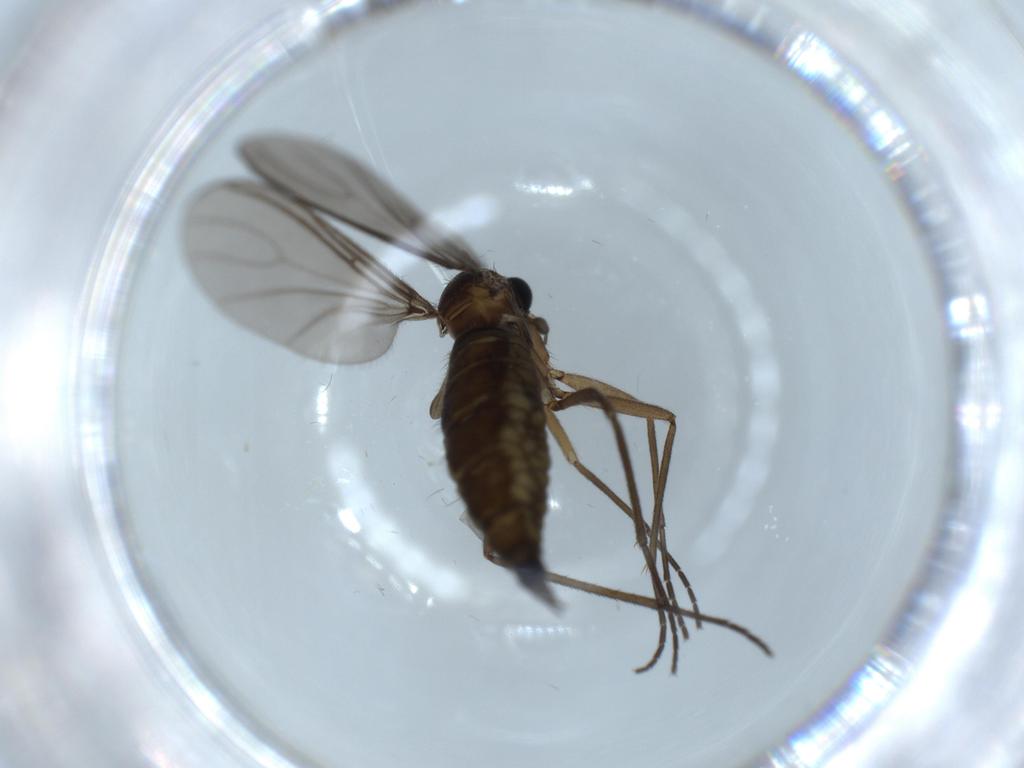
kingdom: Animalia
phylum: Arthropoda
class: Insecta
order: Diptera
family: Sciaridae
